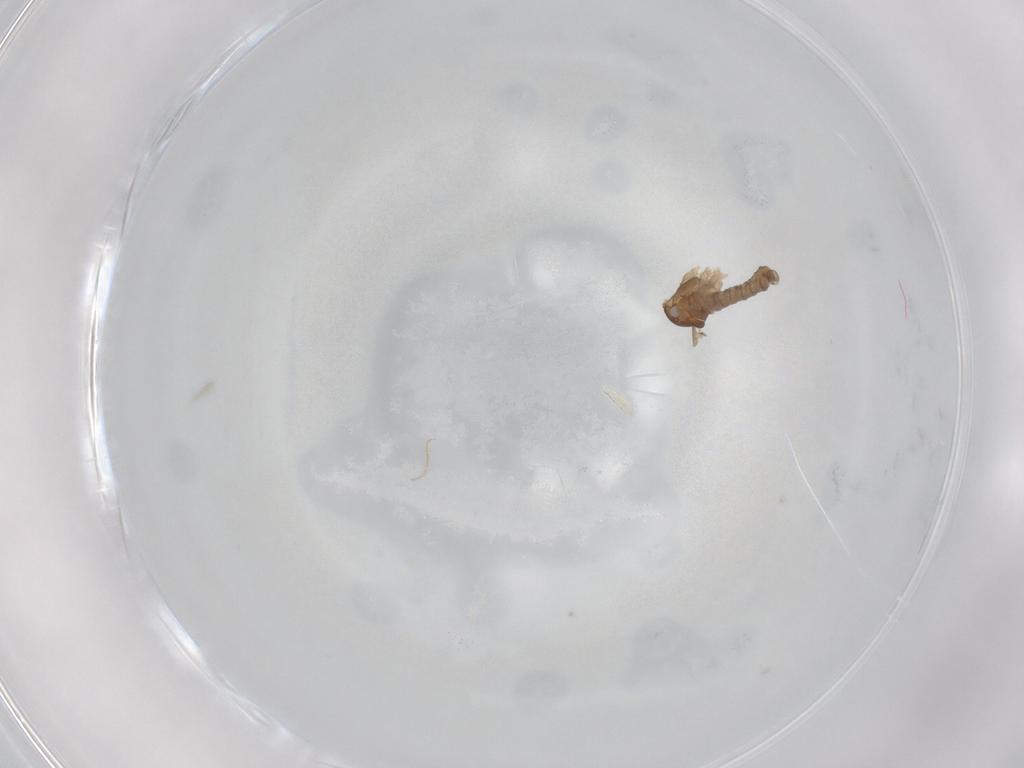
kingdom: Animalia
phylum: Arthropoda
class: Insecta
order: Diptera
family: Cecidomyiidae
